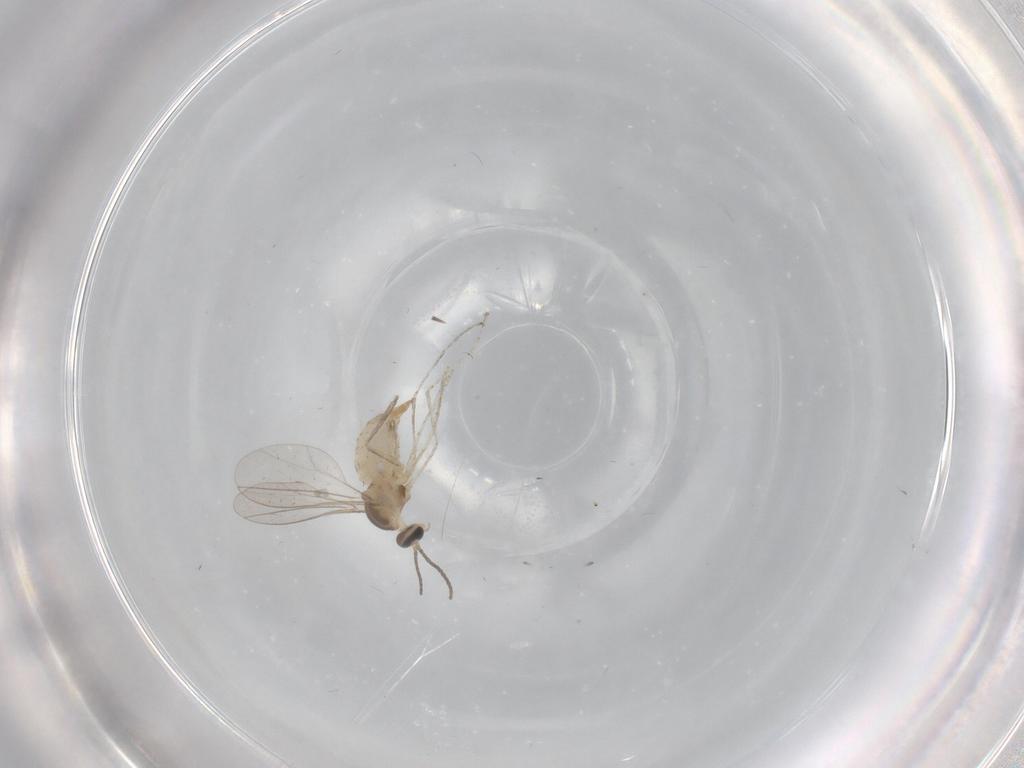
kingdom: Animalia
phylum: Arthropoda
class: Insecta
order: Diptera
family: Cecidomyiidae
